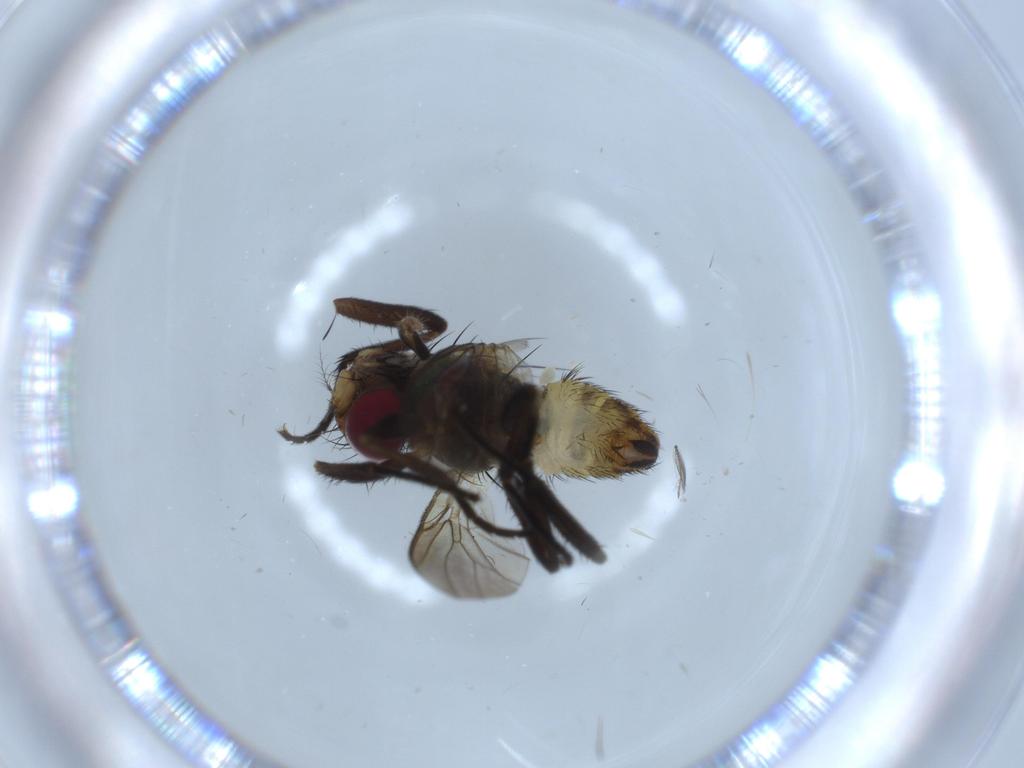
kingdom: Animalia
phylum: Arthropoda
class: Insecta
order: Diptera
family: Anthomyiidae
